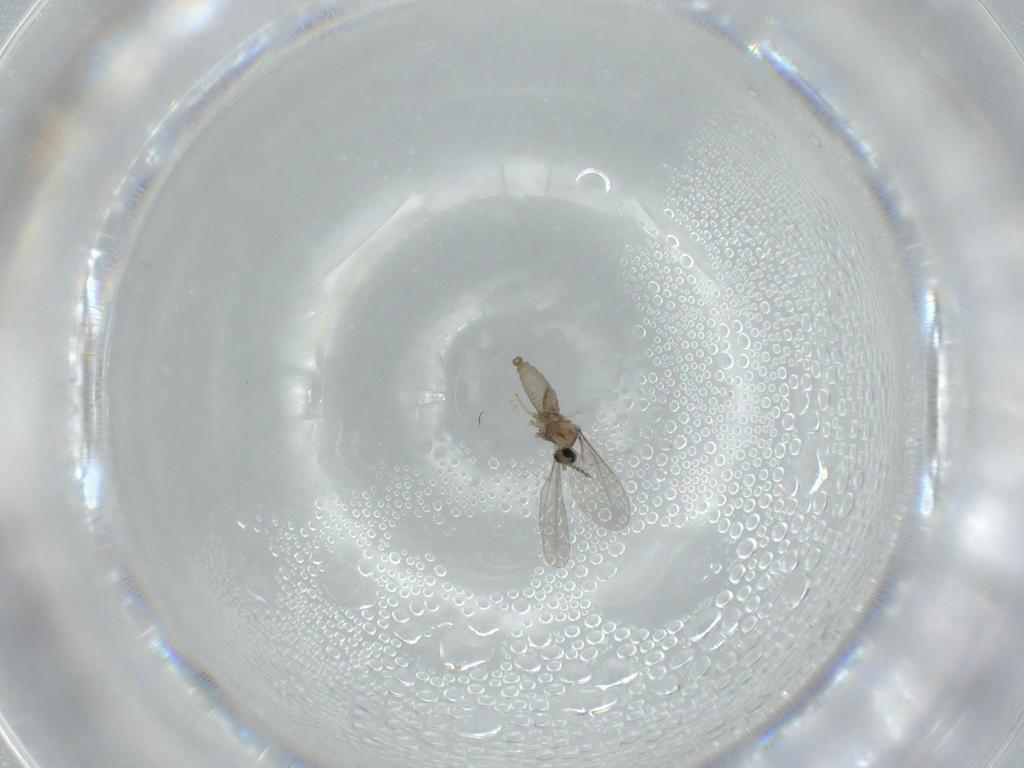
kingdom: Animalia
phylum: Arthropoda
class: Insecta
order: Diptera
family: Cecidomyiidae
